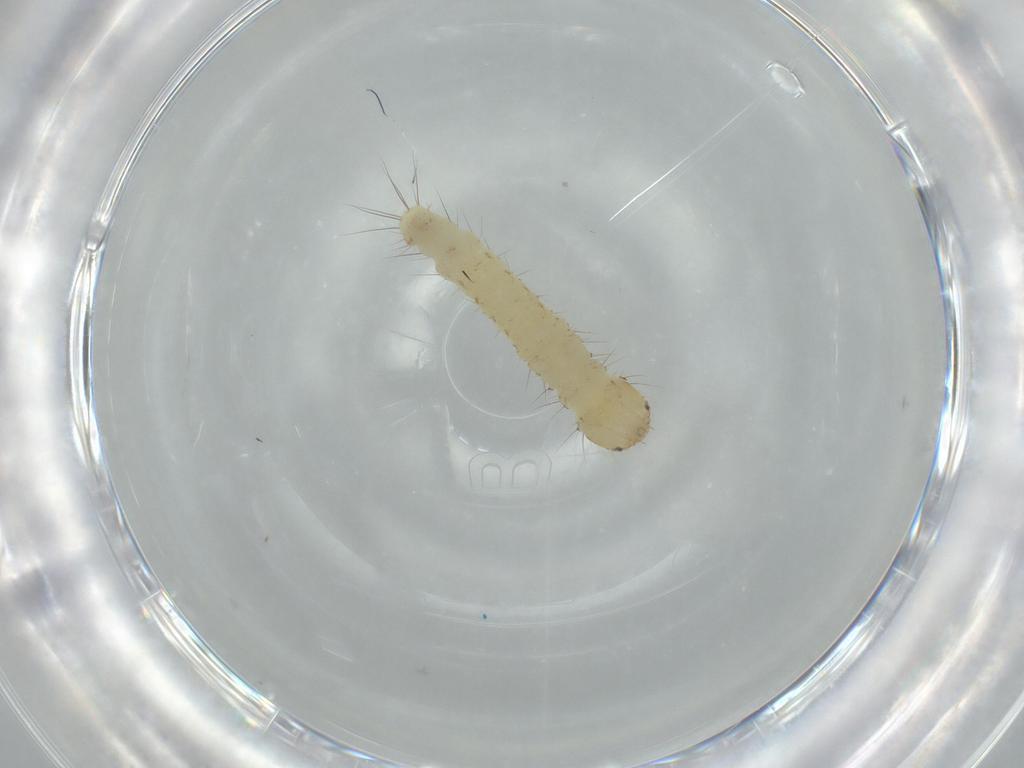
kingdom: Animalia
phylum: Arthropoda
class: Insecta
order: Lepidoptera
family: Gelechiidae
